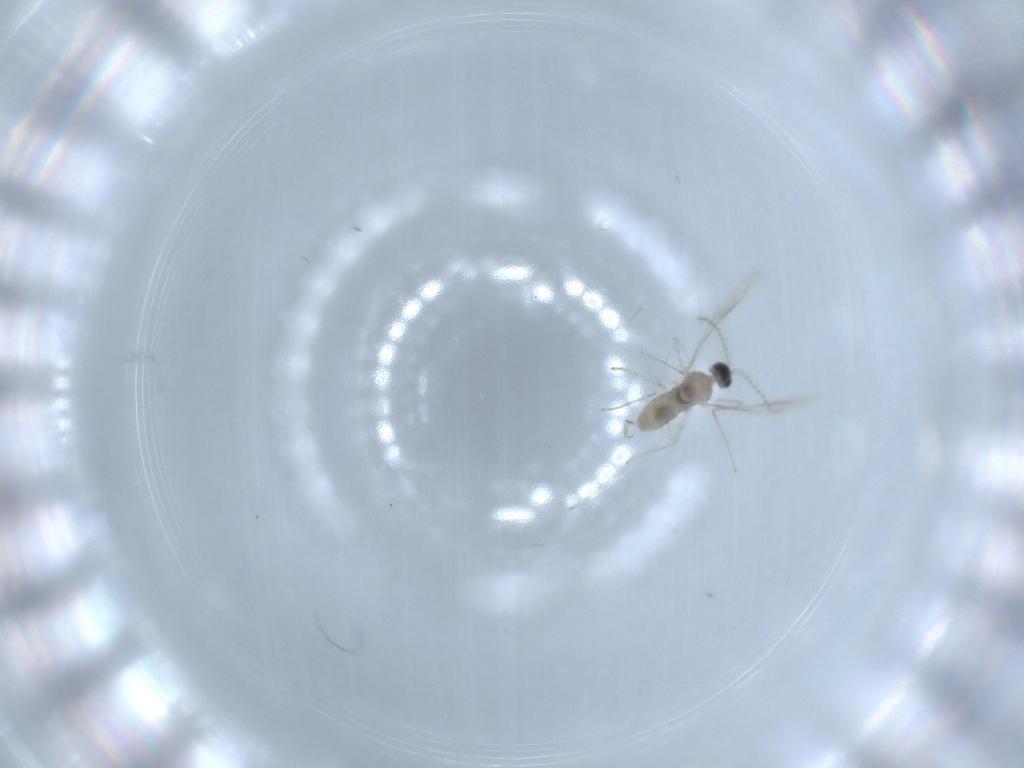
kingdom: Animalia
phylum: Arthropoda
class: Insecta
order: Diptera
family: Cecidomyiidae
